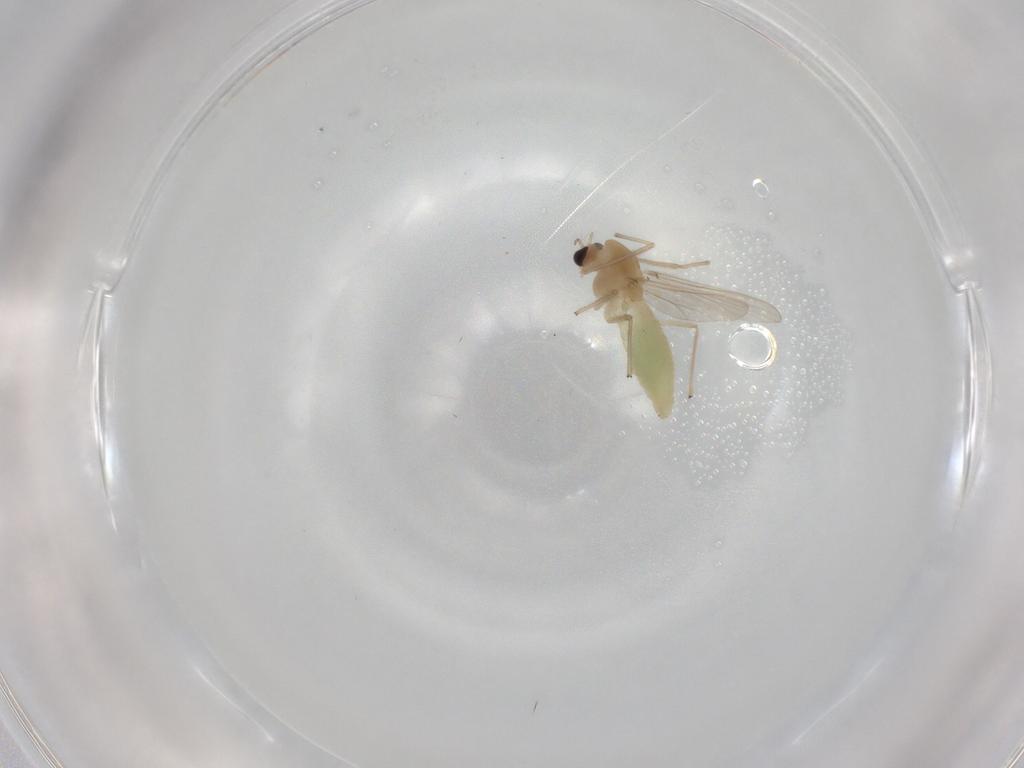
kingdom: Animalia
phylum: Arthropoda
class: Insecta
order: Diptera
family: Chironomidae
